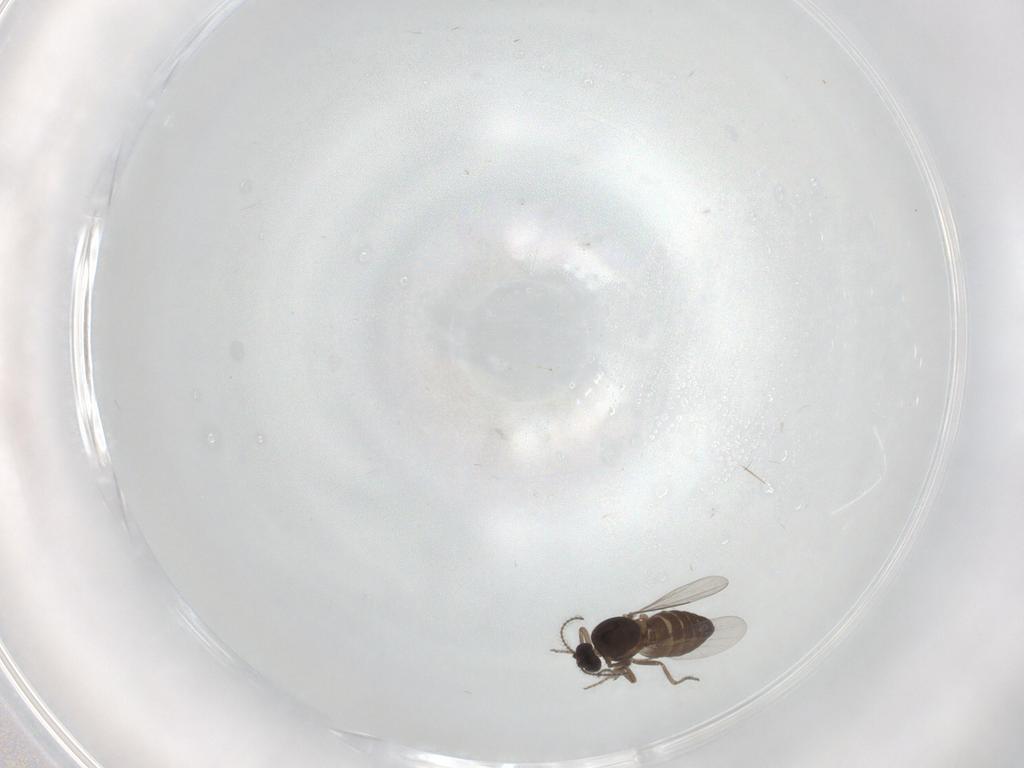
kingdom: Animalia
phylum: Arthropoda
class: Insecta
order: Diptera
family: Ceratopogonidae
